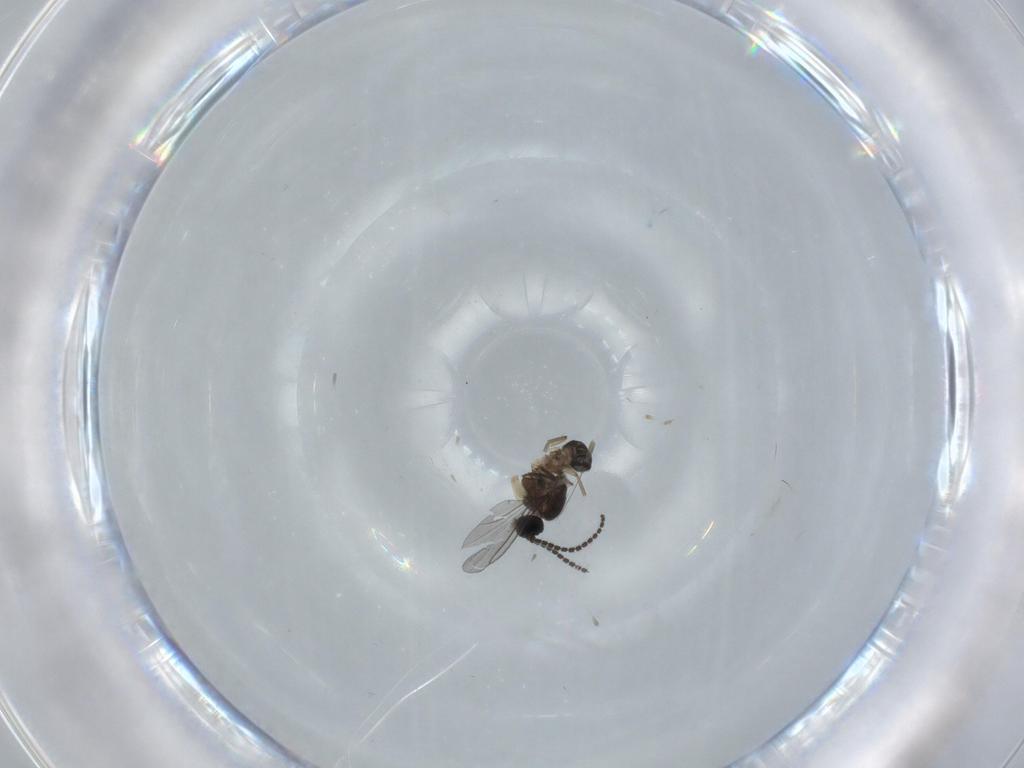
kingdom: Animalia
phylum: Arthropoda
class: Insecta
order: Diptera
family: Sciaridae
